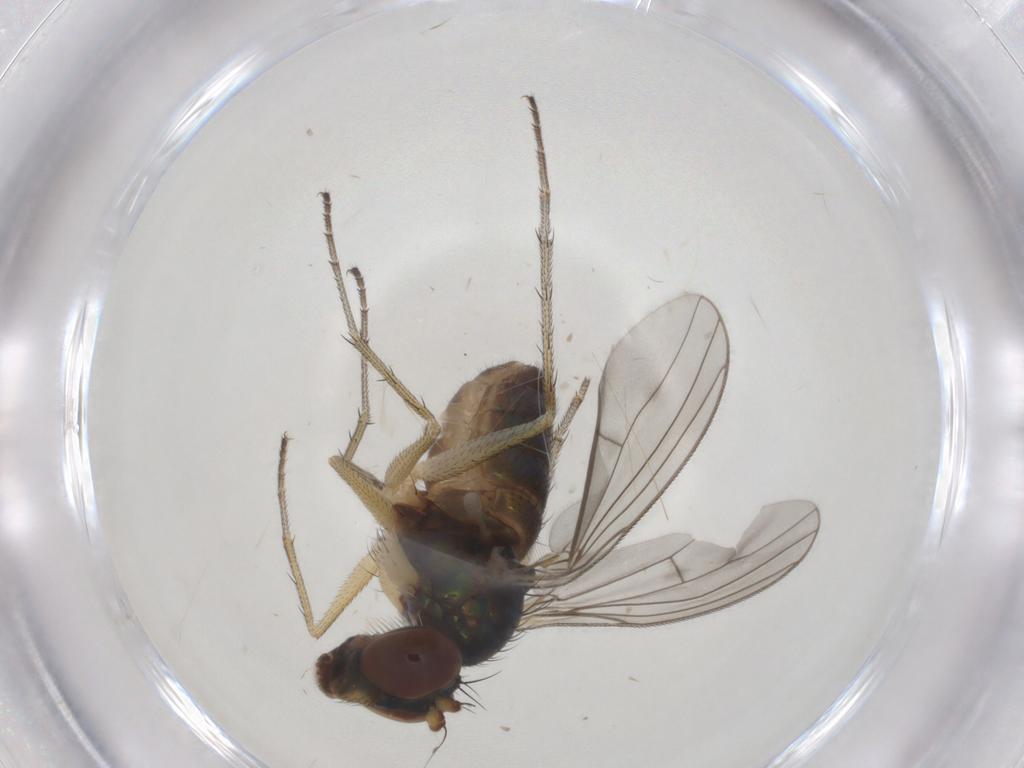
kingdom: Animalia
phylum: Arthropoda
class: Insecta
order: Diptera
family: Dolichopodidae
